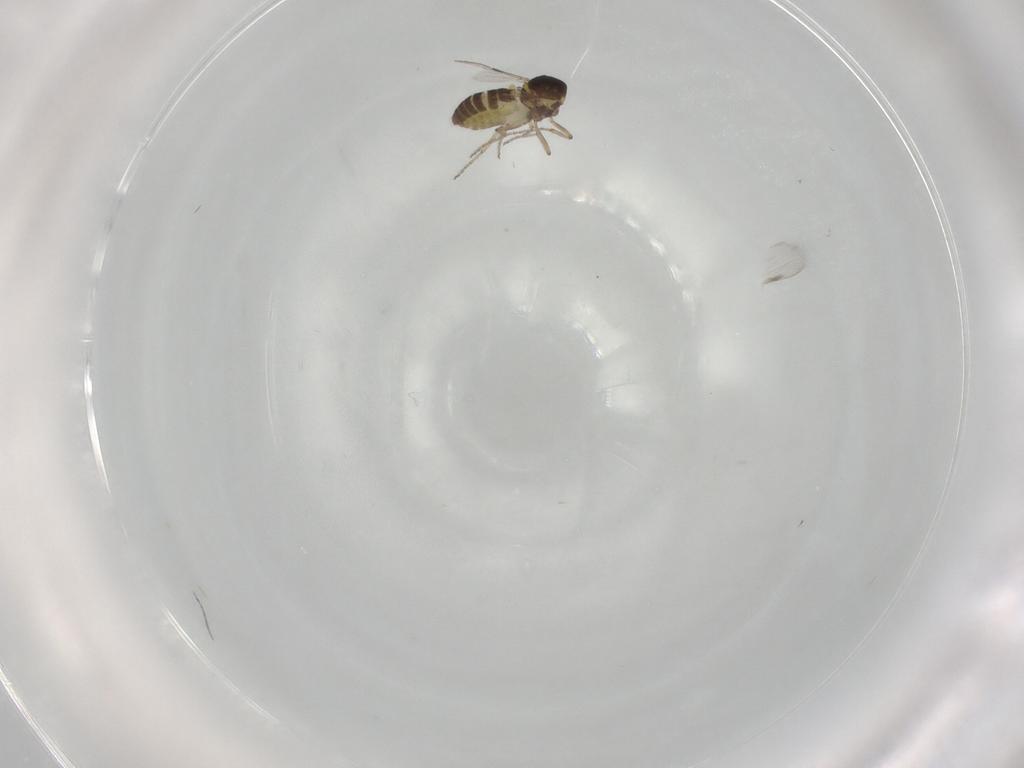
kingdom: Animalia
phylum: Arthropoda
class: Insecta
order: Diptera
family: Ceratopogonidae
